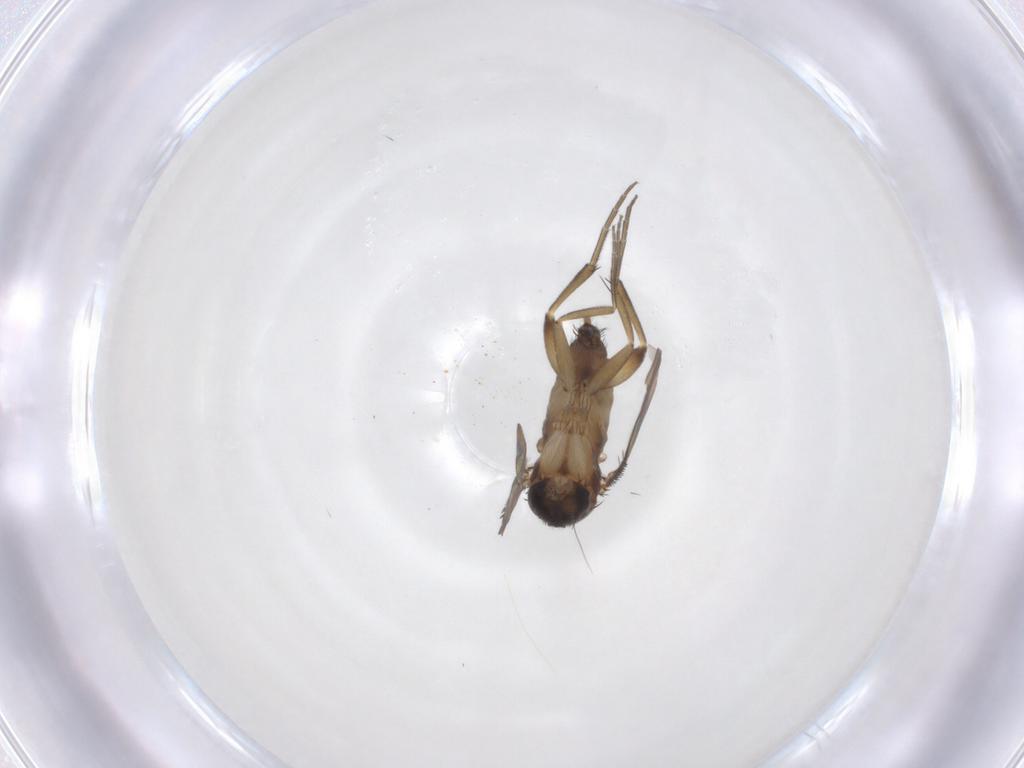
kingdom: Animalia
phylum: Arthropoda
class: Insecta
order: Diptera
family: Phoridae
